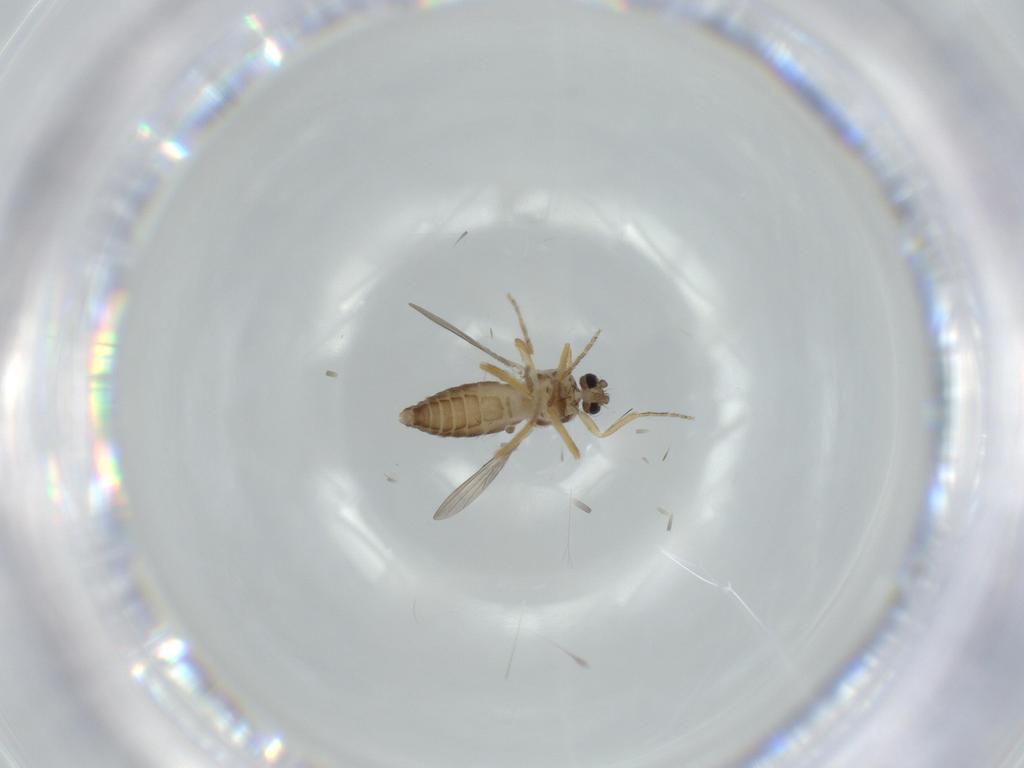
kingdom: Animalia
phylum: Arthropoda
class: Insecta
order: Diptera
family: Ceratopogonidae
